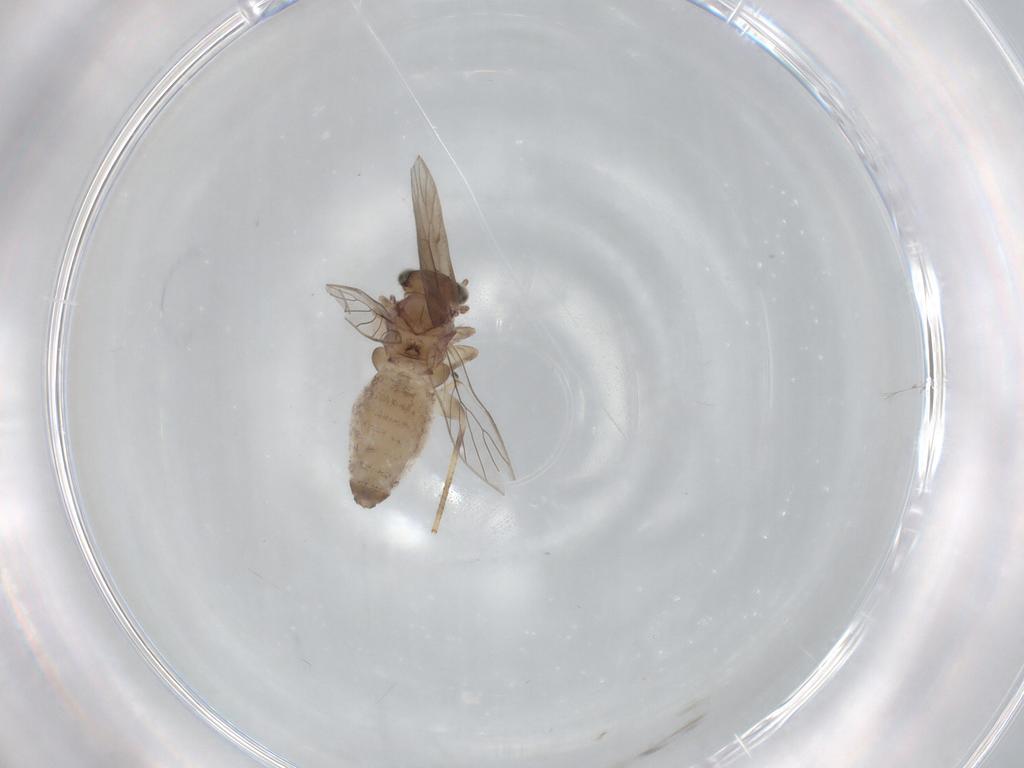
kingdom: Animalia
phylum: Arthropoda
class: Insecta
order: Psocodea
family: Lepidopsocidae
